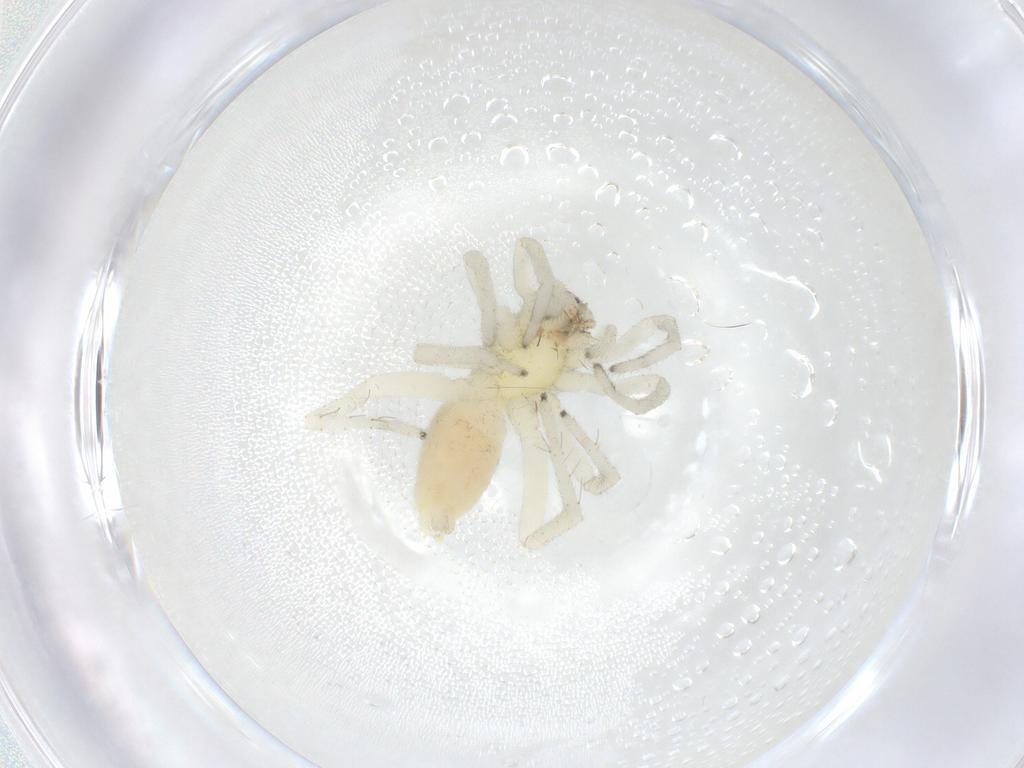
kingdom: Animalia
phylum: Arthropoda
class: Arachnida
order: Araneae
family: Clubionidae
